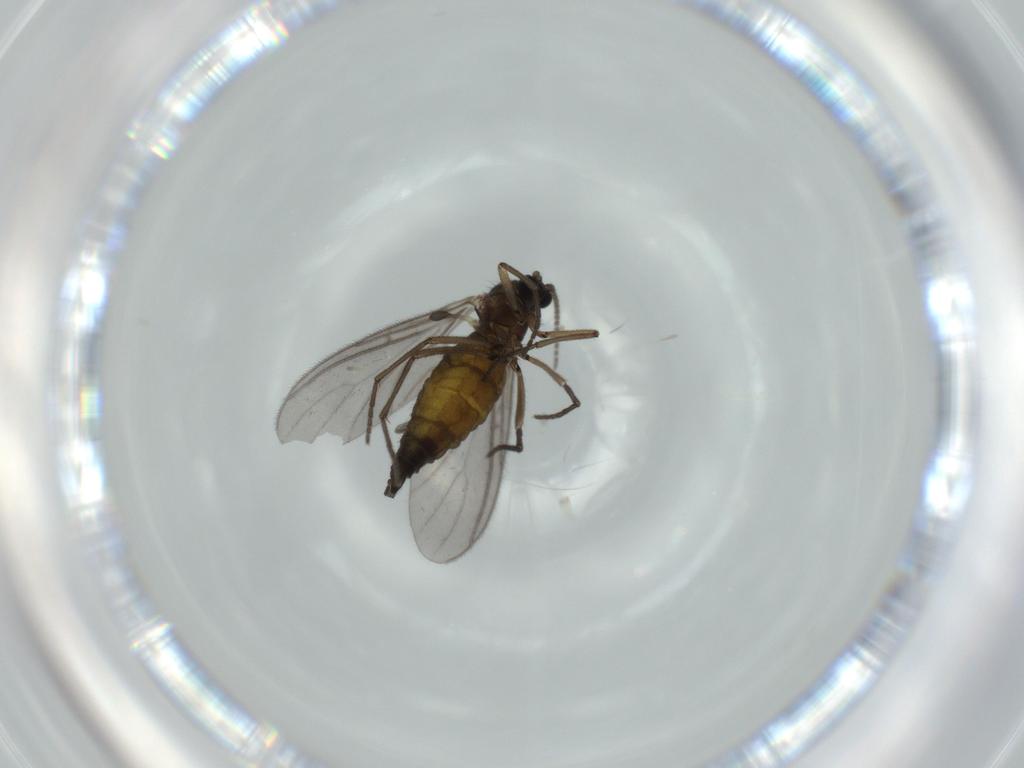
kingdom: Animalia
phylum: Arthropoda
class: Insecta
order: Diptera
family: Sciaridae
